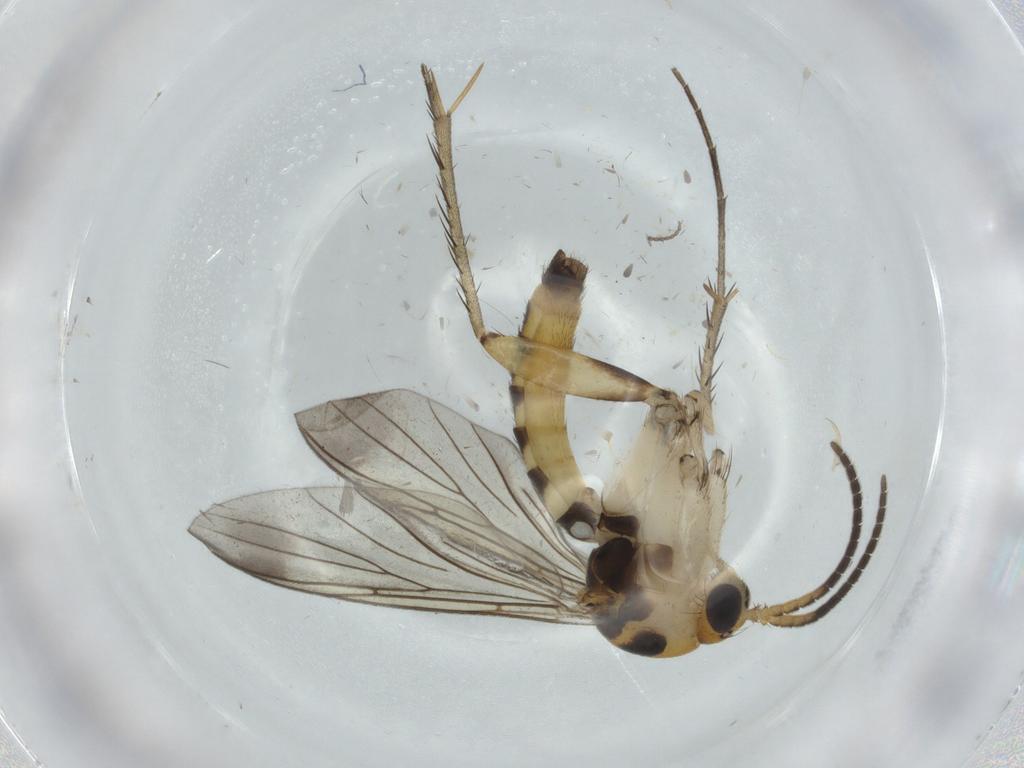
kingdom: Animalia
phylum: Arthropoda
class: Insecta
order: Diptera
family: Mycetophilidae
